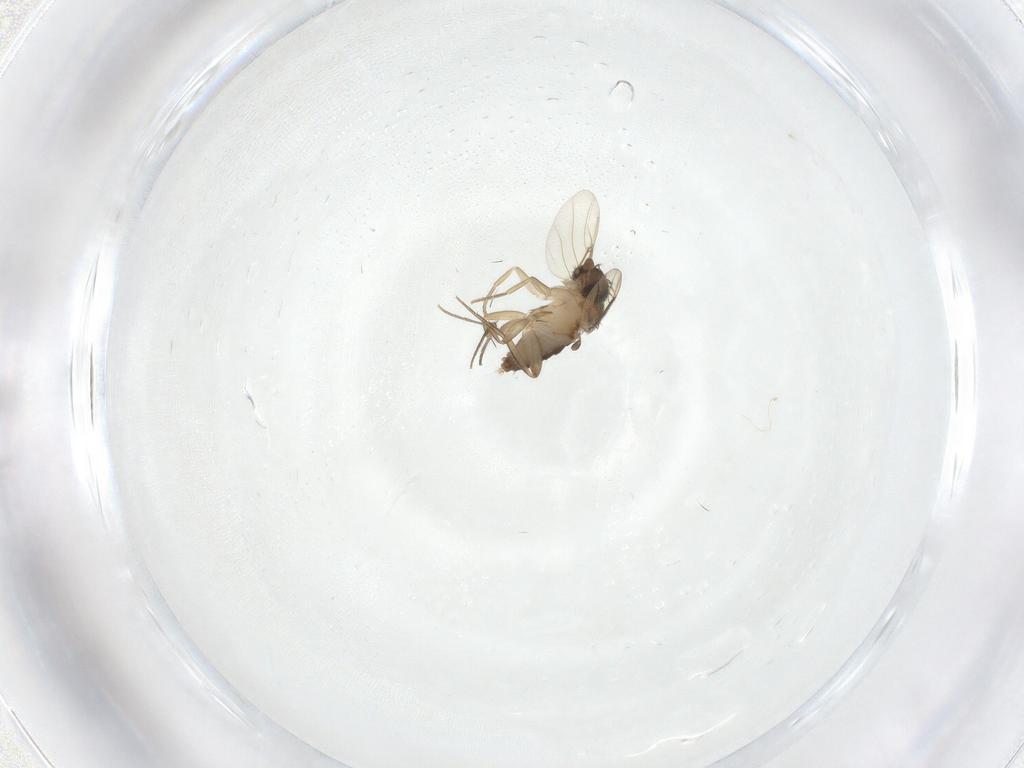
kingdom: Animalia
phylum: Arthropoda
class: Insecta
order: Diptera
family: Phoridae
